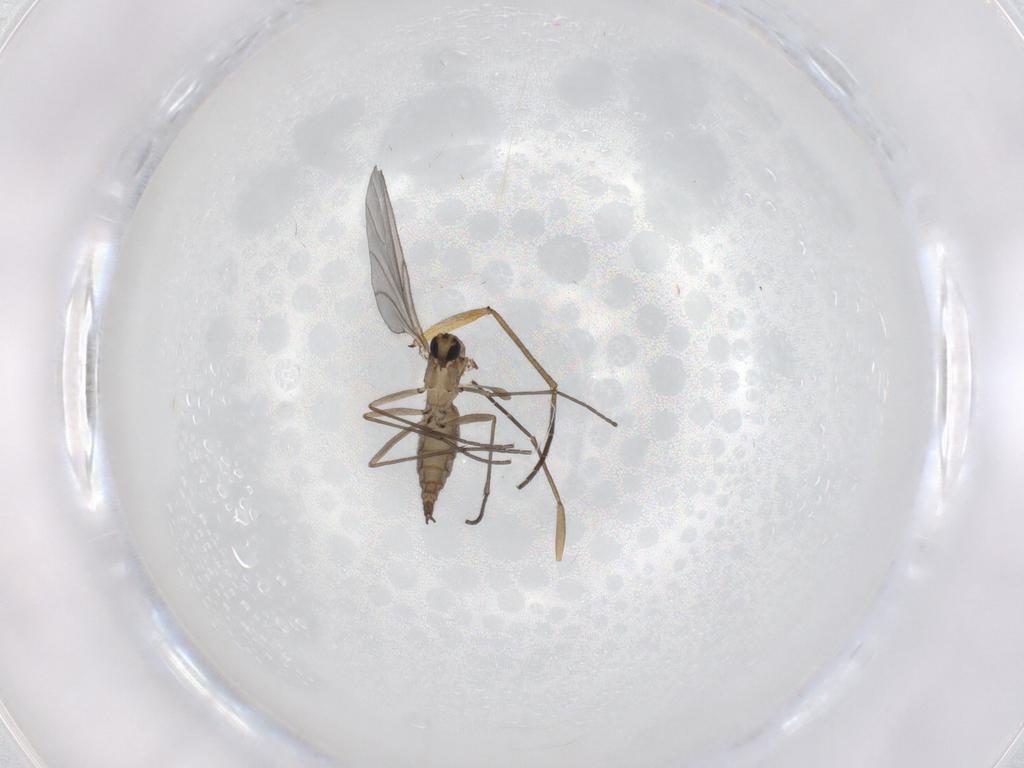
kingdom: Animalia
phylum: Arthropoda
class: Insecta
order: Diptera
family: Sciaridae
